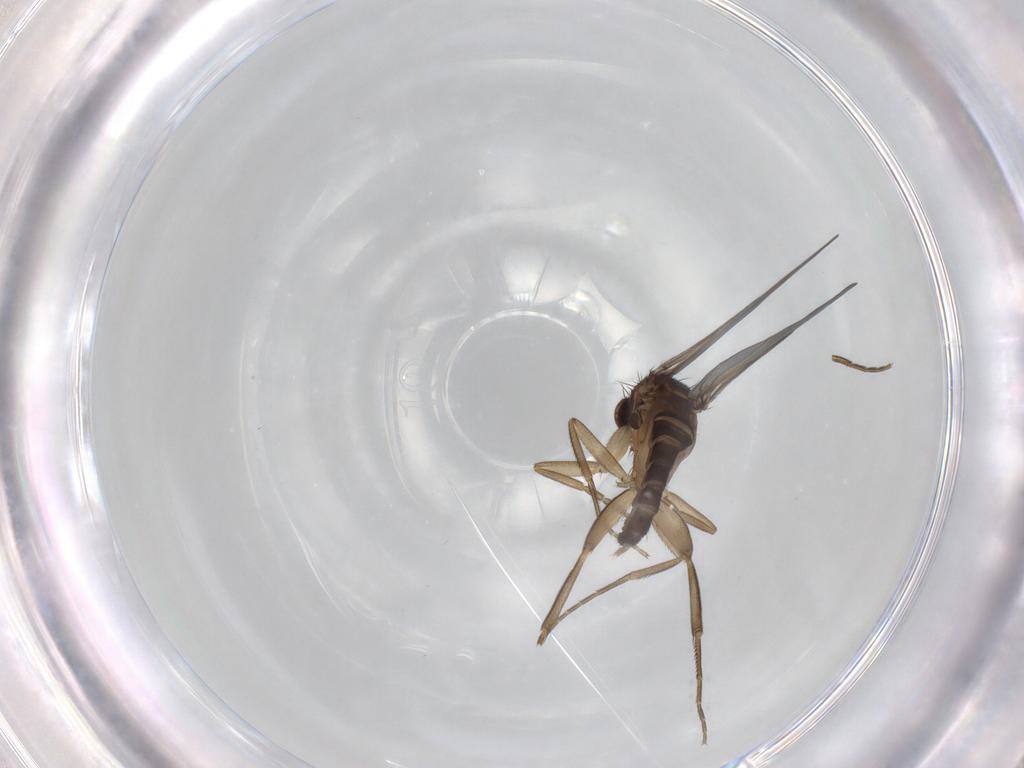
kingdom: Animalia
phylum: Arthropoda
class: Insecta
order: Diptera
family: Phoridae
